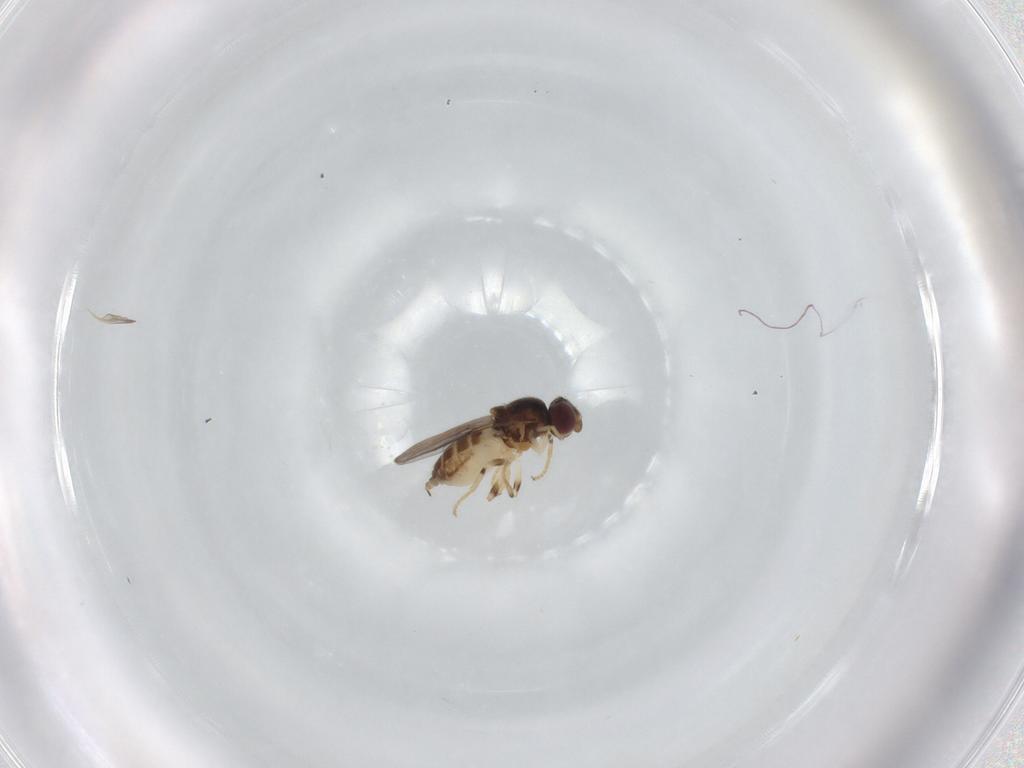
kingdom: Animalia
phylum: Arthropoda
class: Insecta
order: Diptera
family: Chloropidae
